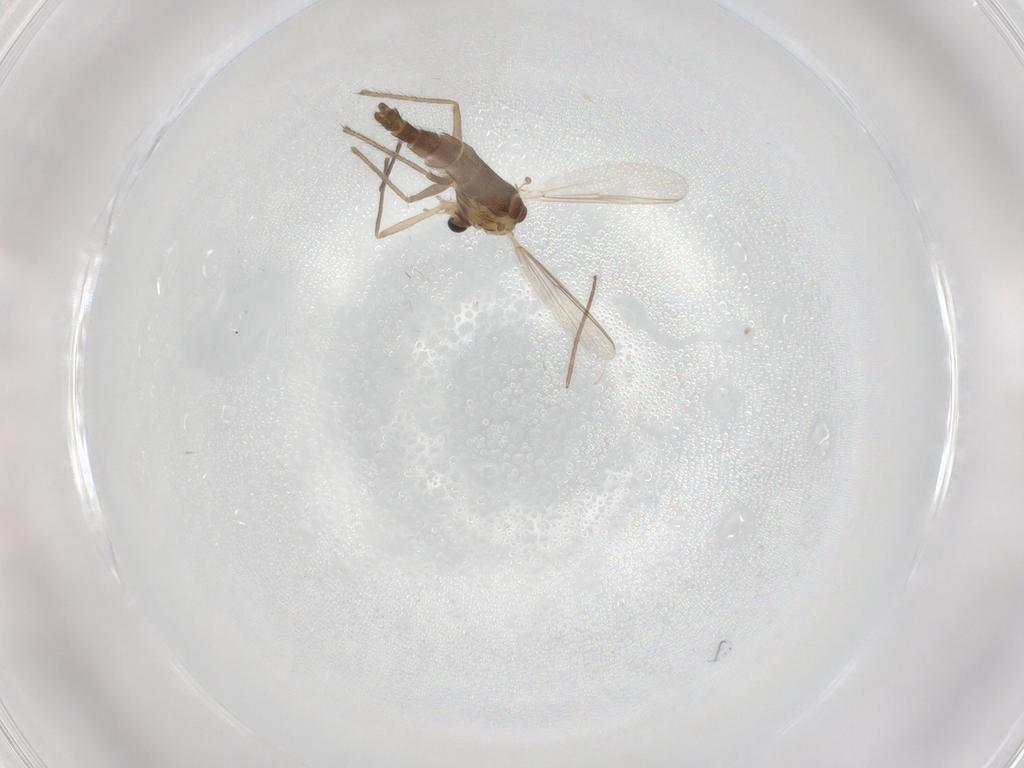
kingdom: Animalia
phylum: Arthropoda
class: Insecta
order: Diptera
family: Chironomidae
